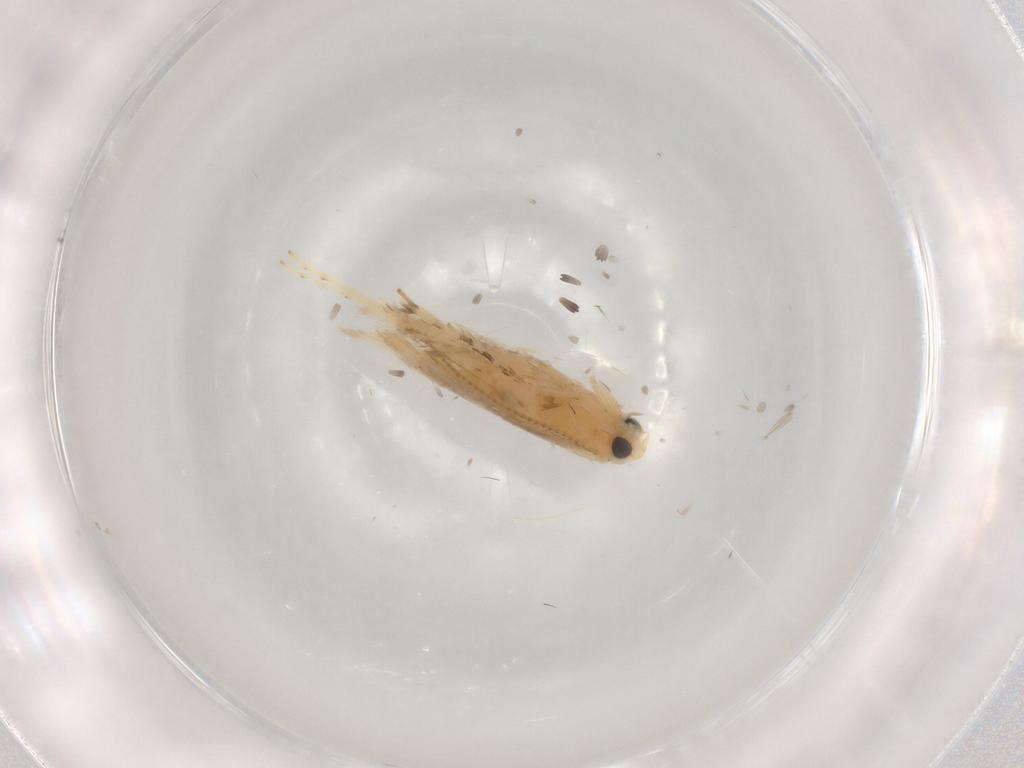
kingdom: Animalia
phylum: Arthropoda
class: Insecta
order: Lepidoptera
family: Gracillariidae
